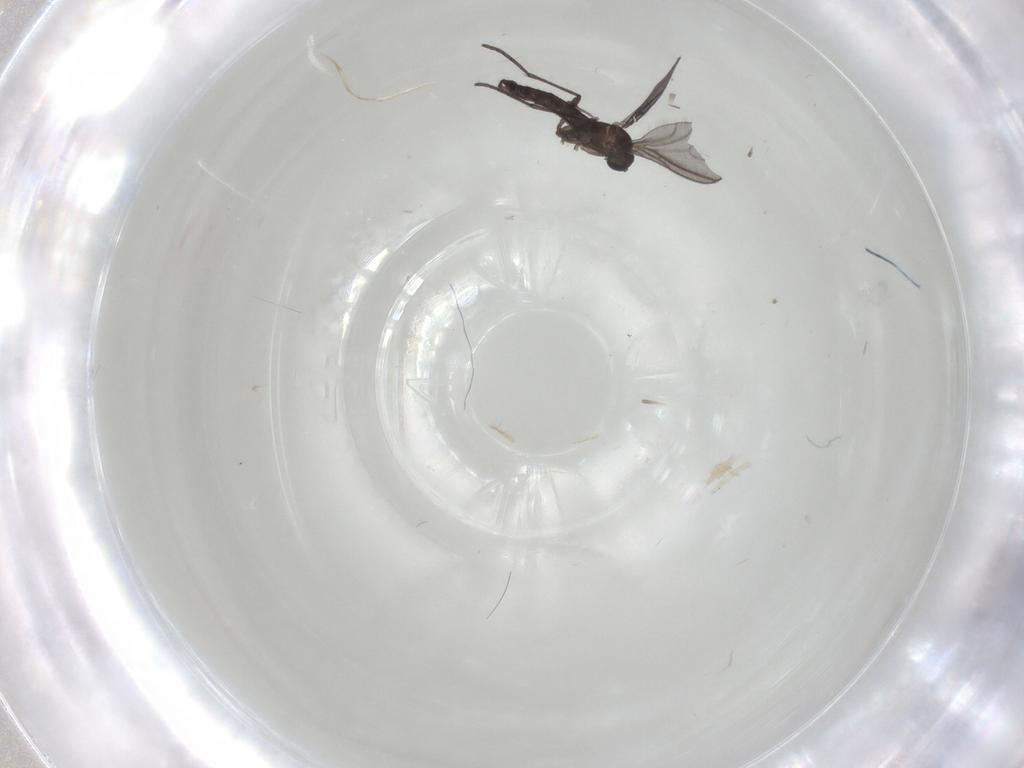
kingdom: Animalia
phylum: Arthropoda
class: Insecta
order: Diptera
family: Sciaridae
